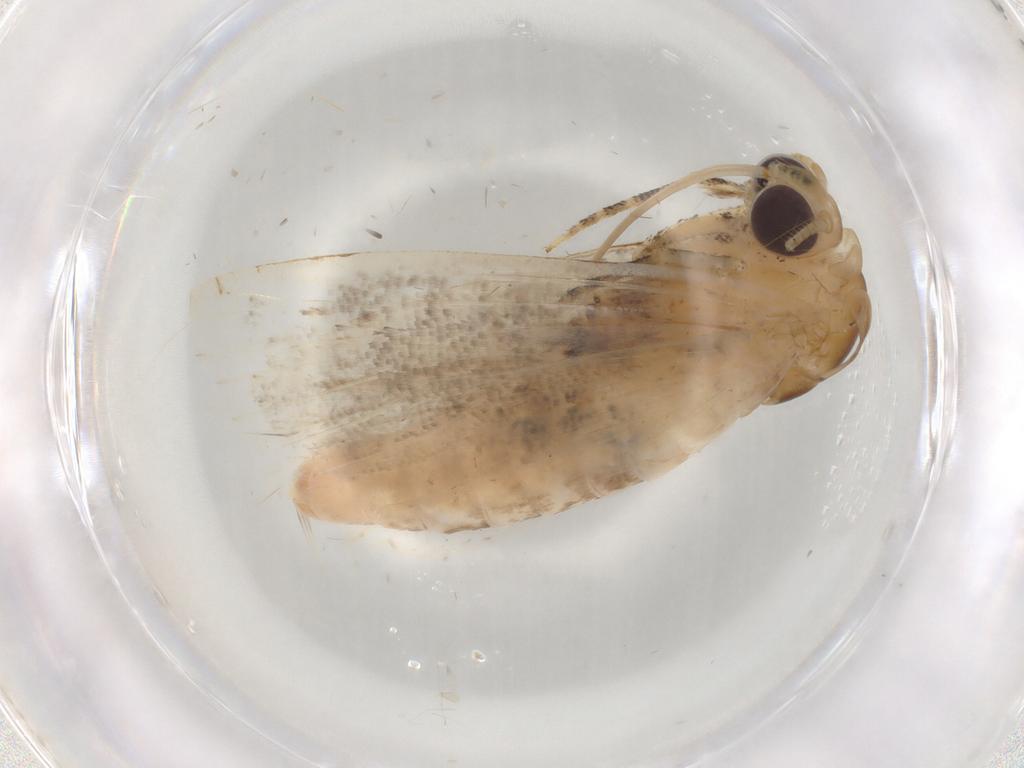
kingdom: Animalia
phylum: Arthropoda
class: Insecta
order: Lepidoptera
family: Nolidae
